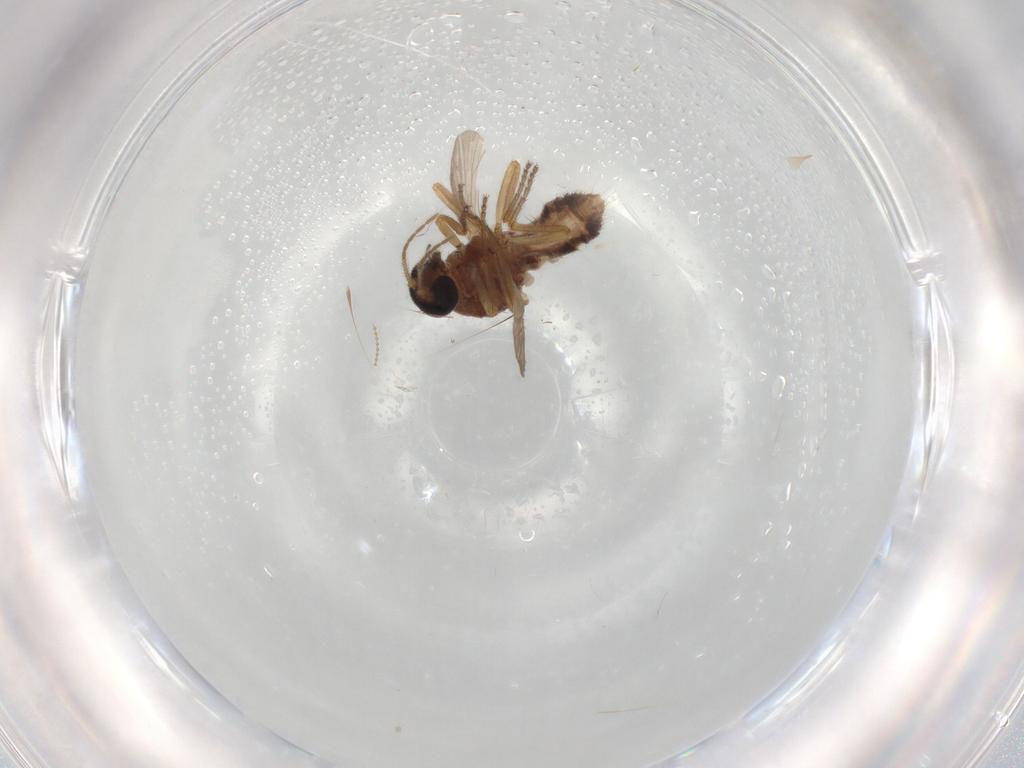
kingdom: Animalia
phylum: Arthropoda
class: Insecta
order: Diptera
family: Ceratopogonidae
